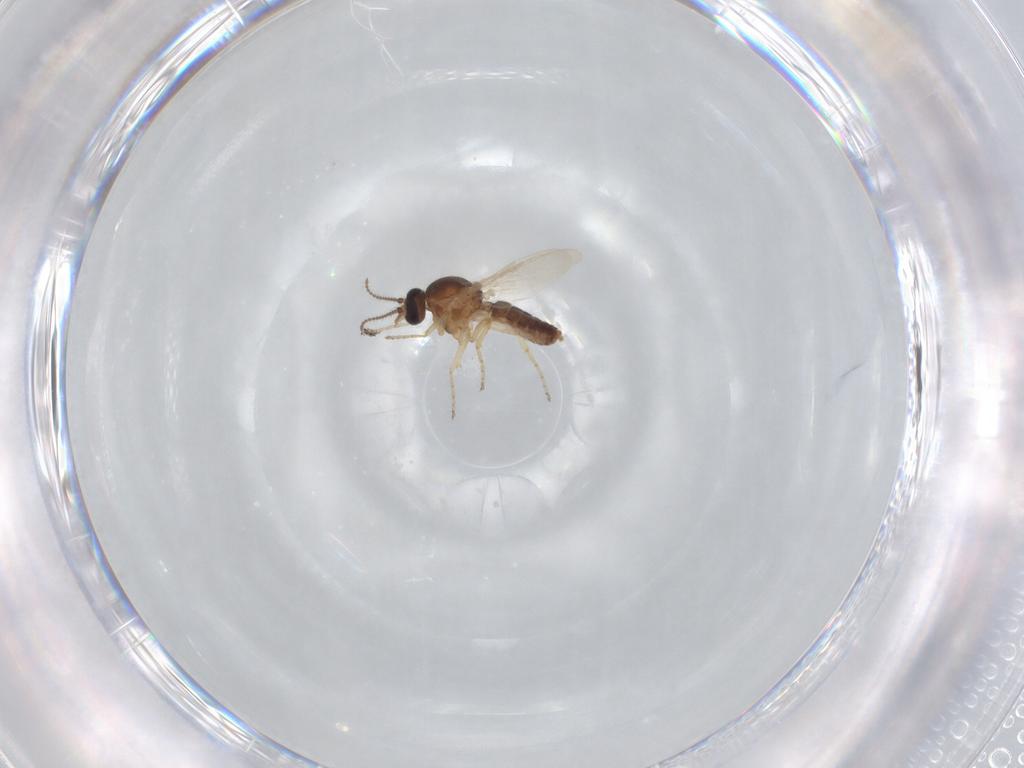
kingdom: Animalia
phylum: Arthropoda
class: Insecta
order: Diptera
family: Ceratopogonidae
